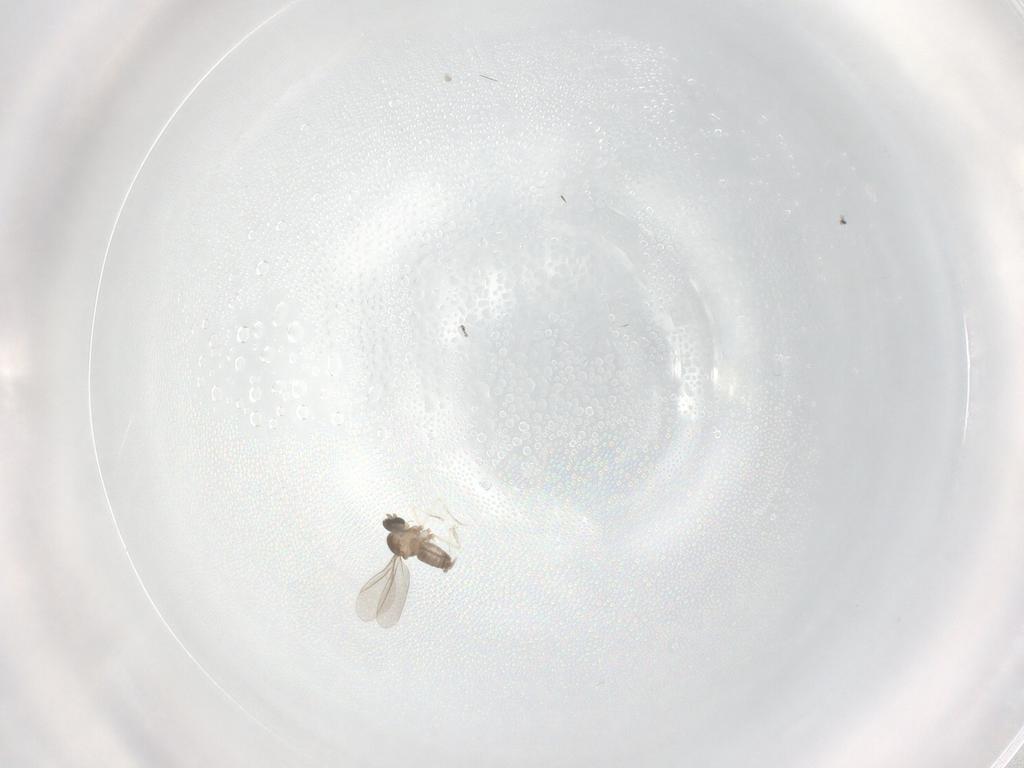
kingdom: Animalia
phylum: Arthropoda
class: Insecta
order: Diptera
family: Cecidomyiidae
